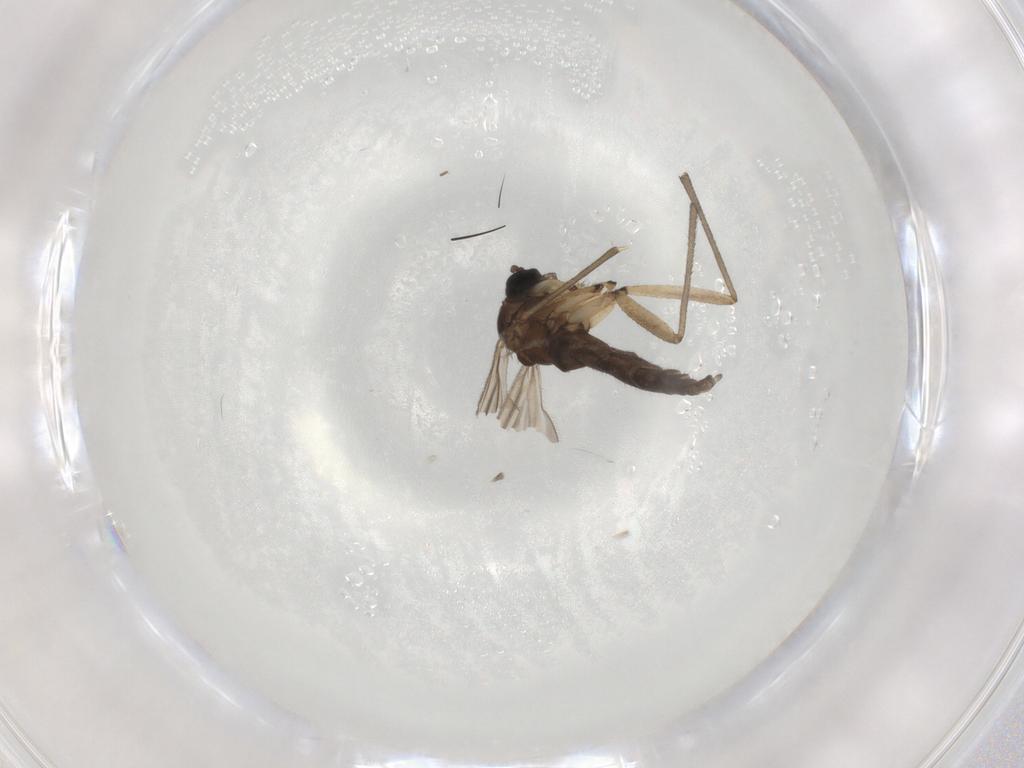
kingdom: Animalia
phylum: Arthropoda
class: Insecta
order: Diptera
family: Sciaridae
